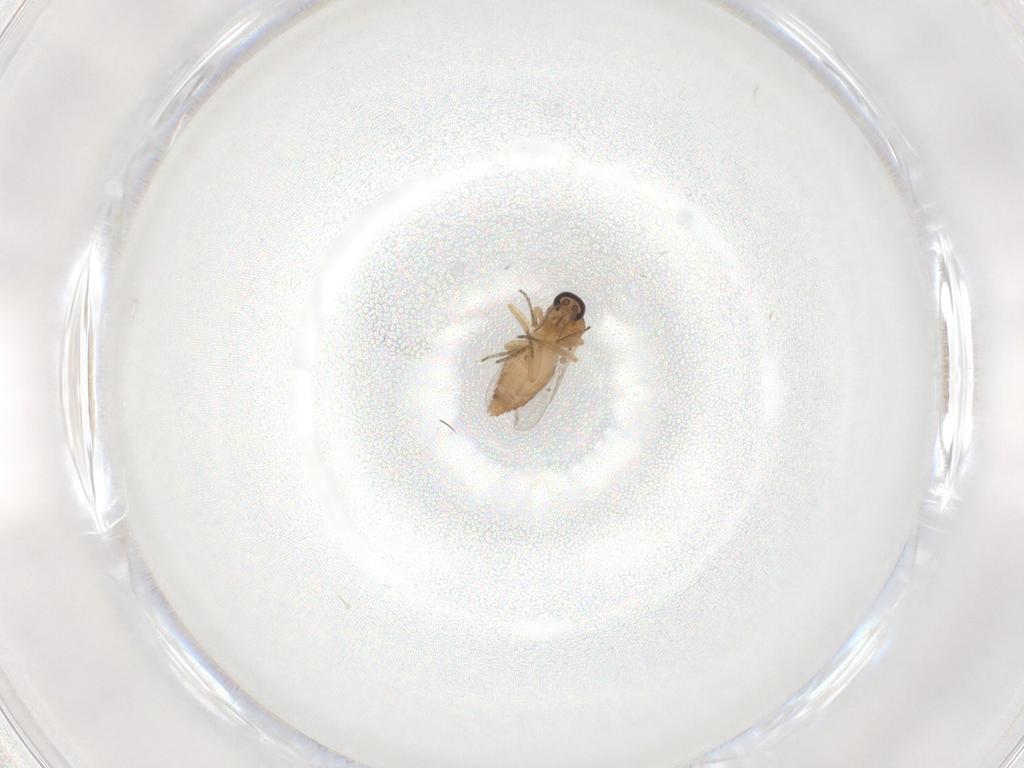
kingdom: Animalia
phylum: Arthropoda
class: Insecta
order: Diptera
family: Ceratopogonidae
